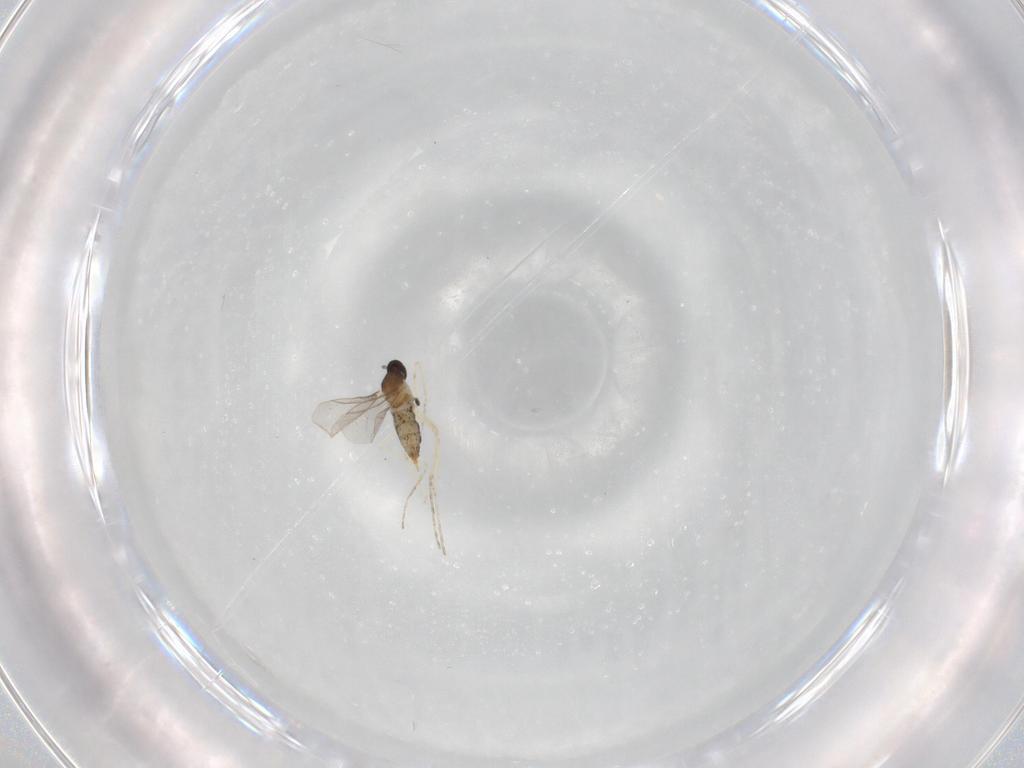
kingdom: Animalia
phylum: Arthropoda
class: Insecta
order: Diptera
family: Cecidomyiidae
